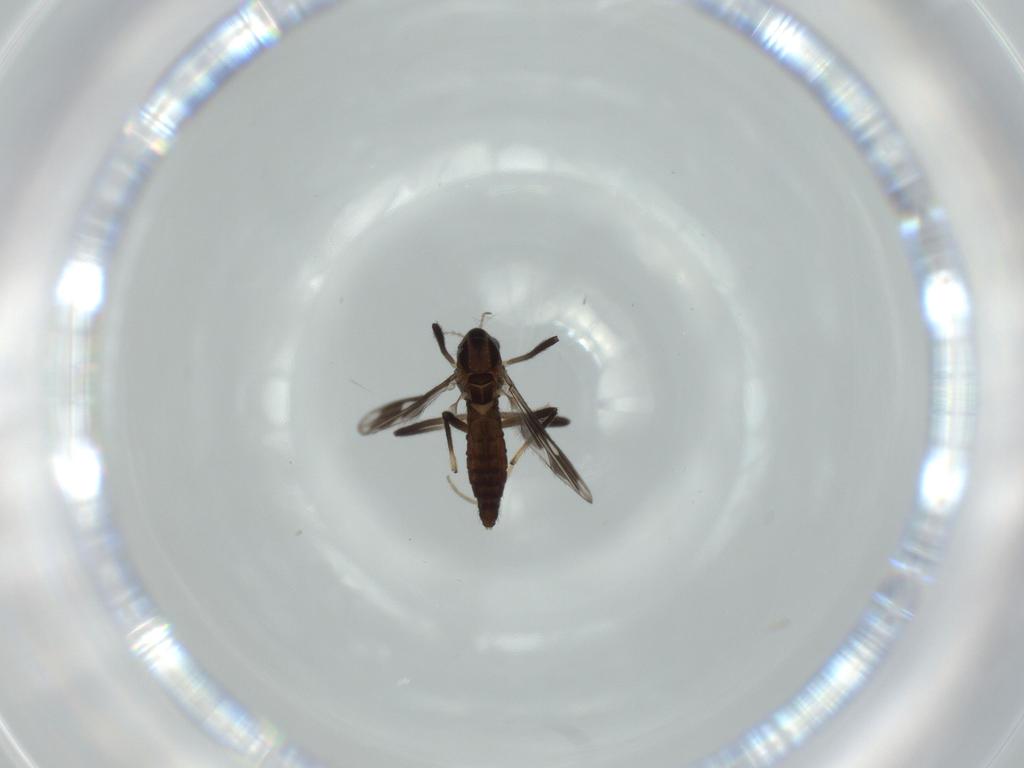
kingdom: Animalia
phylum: Arthropoda
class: Insecta
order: Diptera
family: Chironomidae
